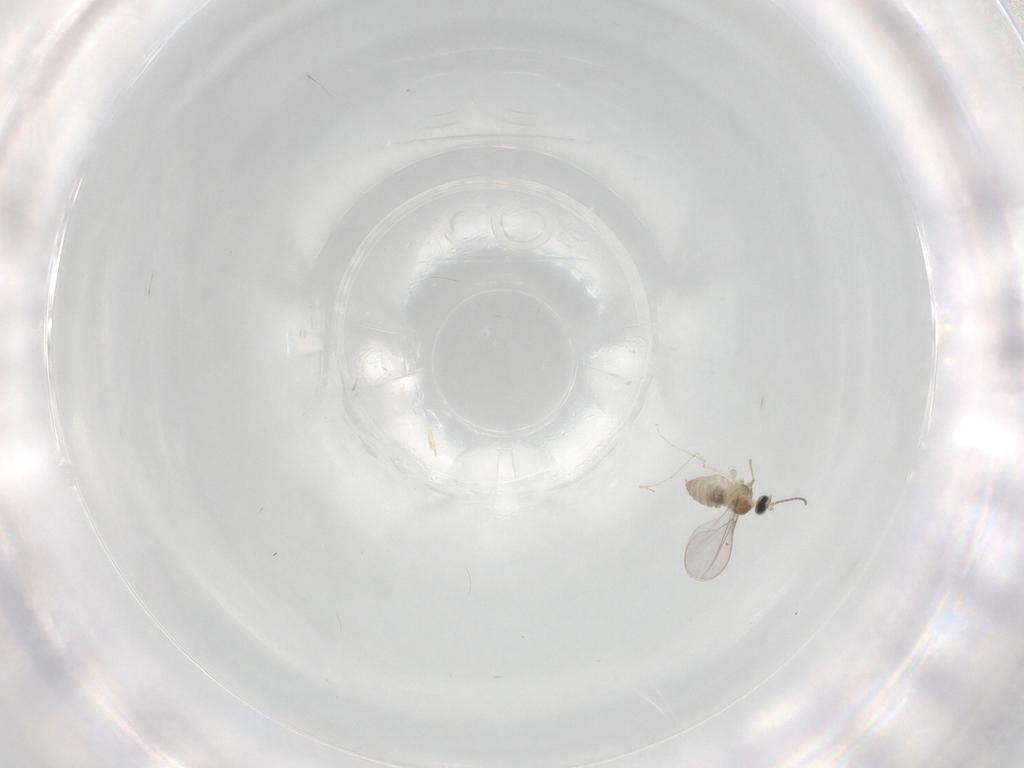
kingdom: Animalia
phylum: Arthropoda
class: Insecta
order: Diptera
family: Cecidomyiidae
